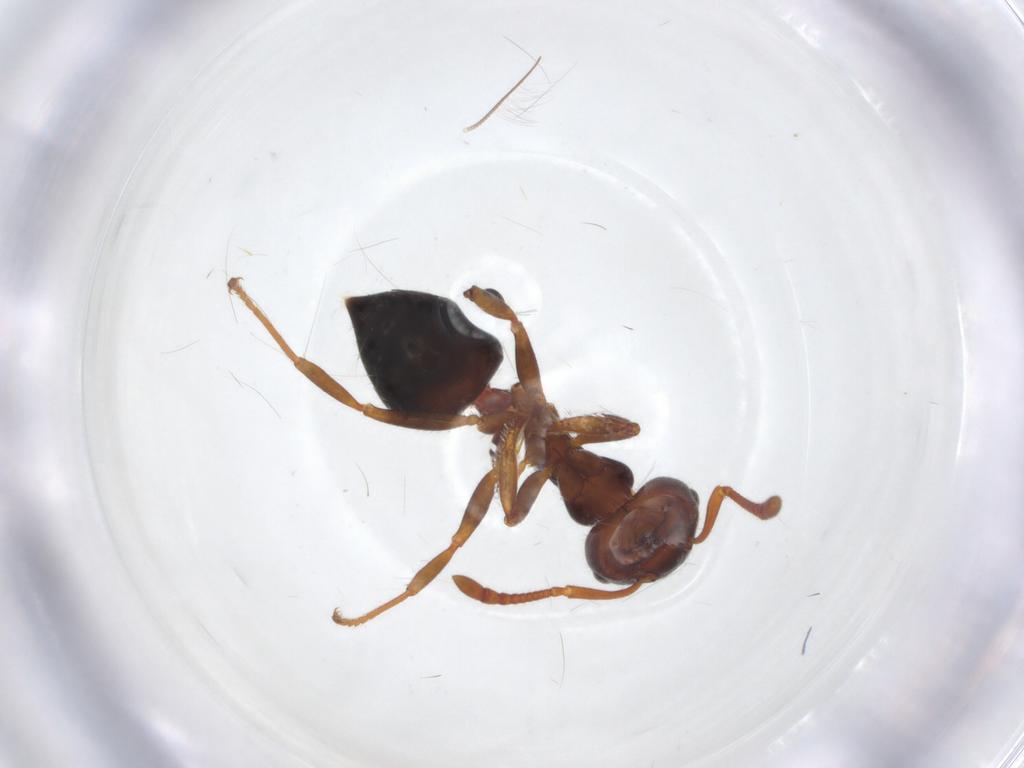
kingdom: Animalia
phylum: Arthropoda
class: Insecta
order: Hymenoptera
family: Formicidae
